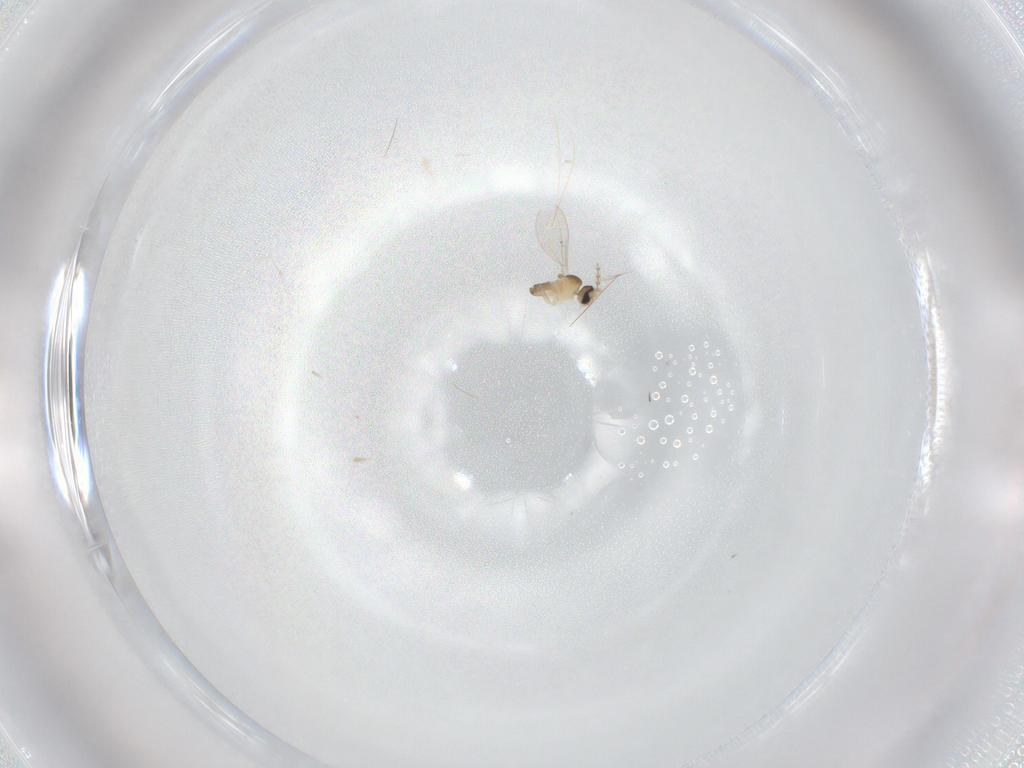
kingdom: Animalia
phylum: Arthropoda
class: Insecta
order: Diptera
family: Cecidomyiidae
